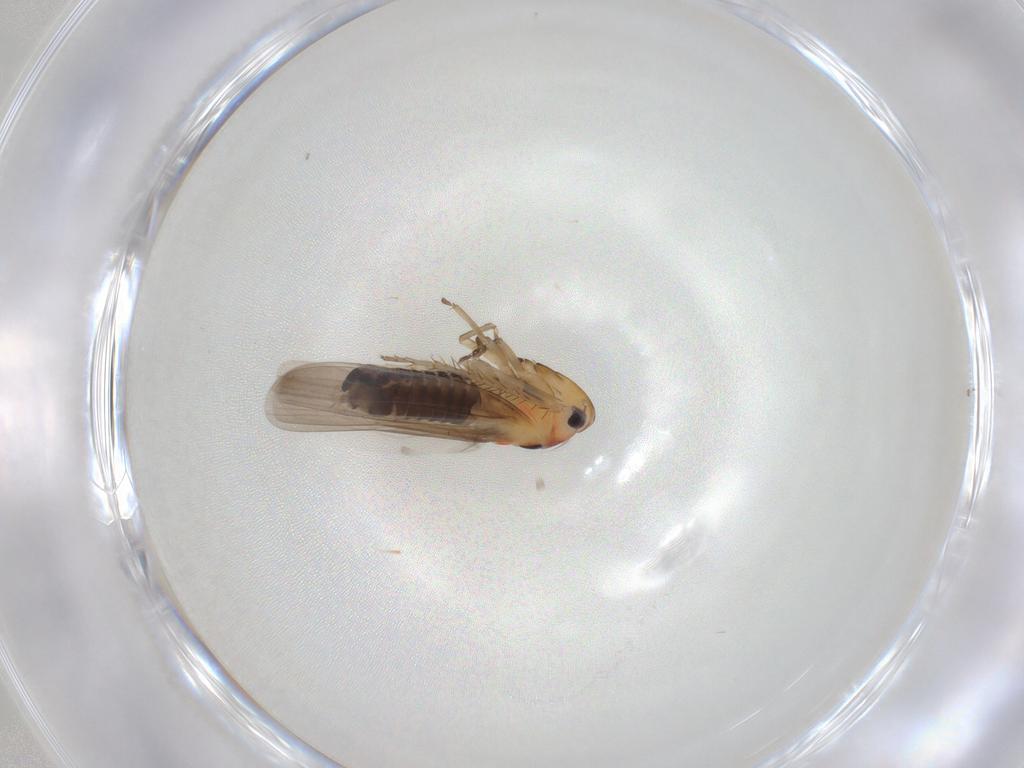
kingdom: Animalia
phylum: Arthropoda
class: Insecta
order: Hemiptera
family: Cicadellidae
